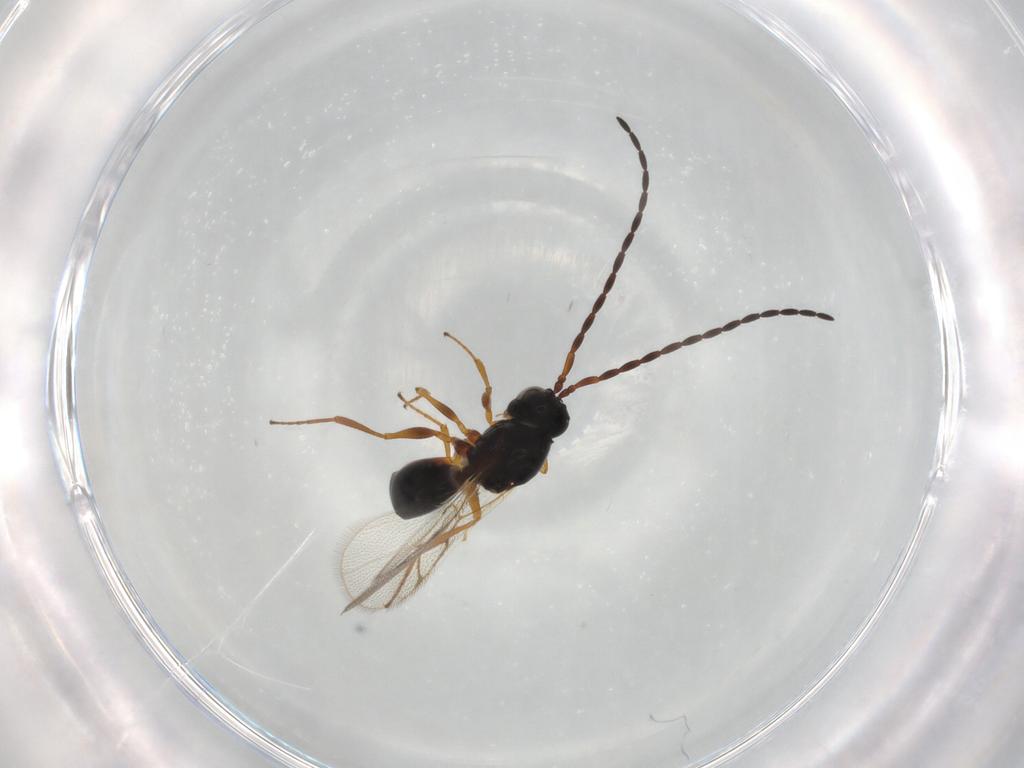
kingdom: Animalia
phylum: Arthropoda
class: Insecta
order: Hymenoptera
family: Figitidae
